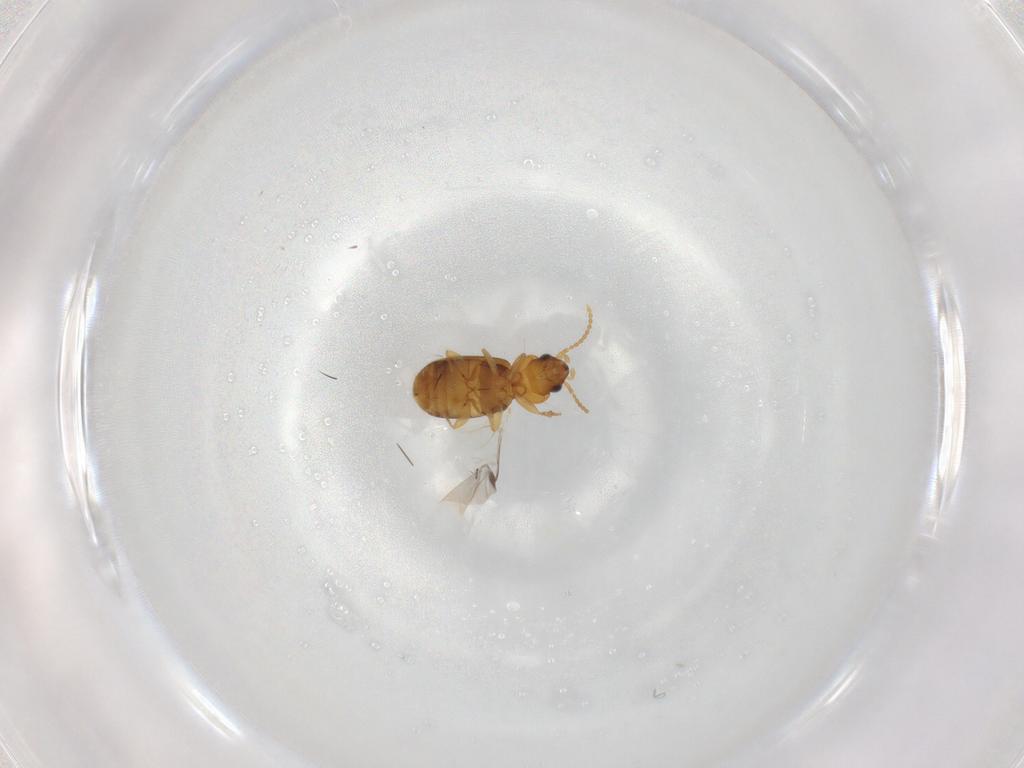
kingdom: Animalia
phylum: Arthropoda
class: Insecta
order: Coleoptera
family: Carabidae
